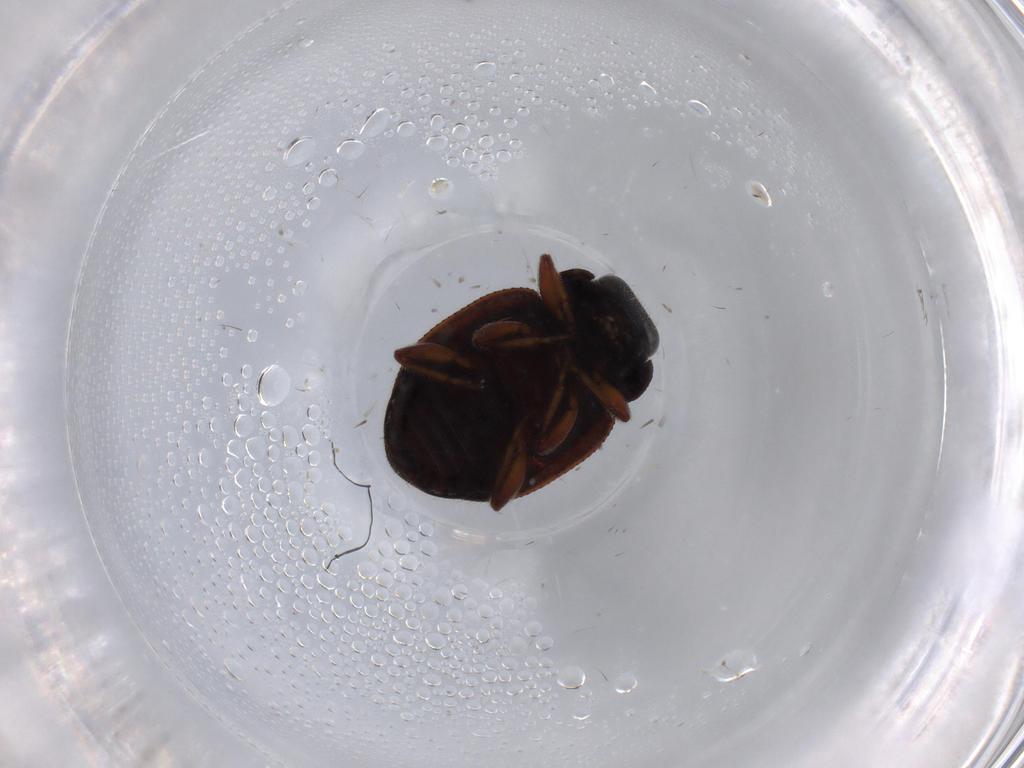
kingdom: Animalia
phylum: Arthropoda
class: Insecta
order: Coleoptera
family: Coccinellidae
